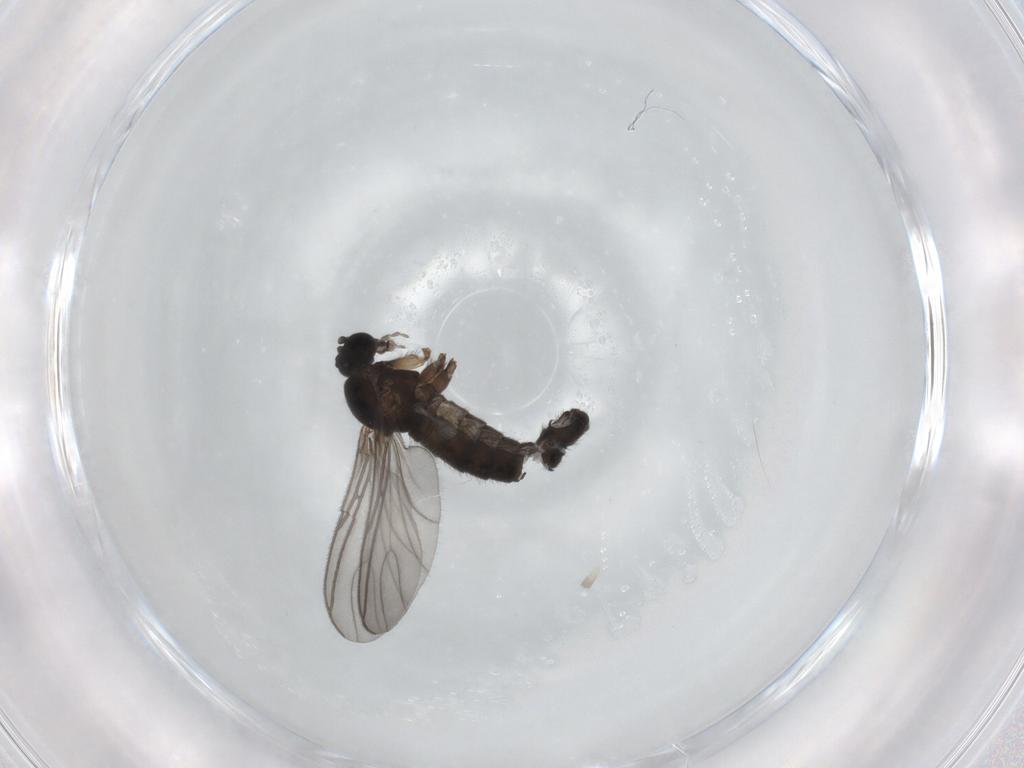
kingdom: Animalia
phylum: Arthropoda
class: Insecta
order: Diptera
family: Sciaridae
